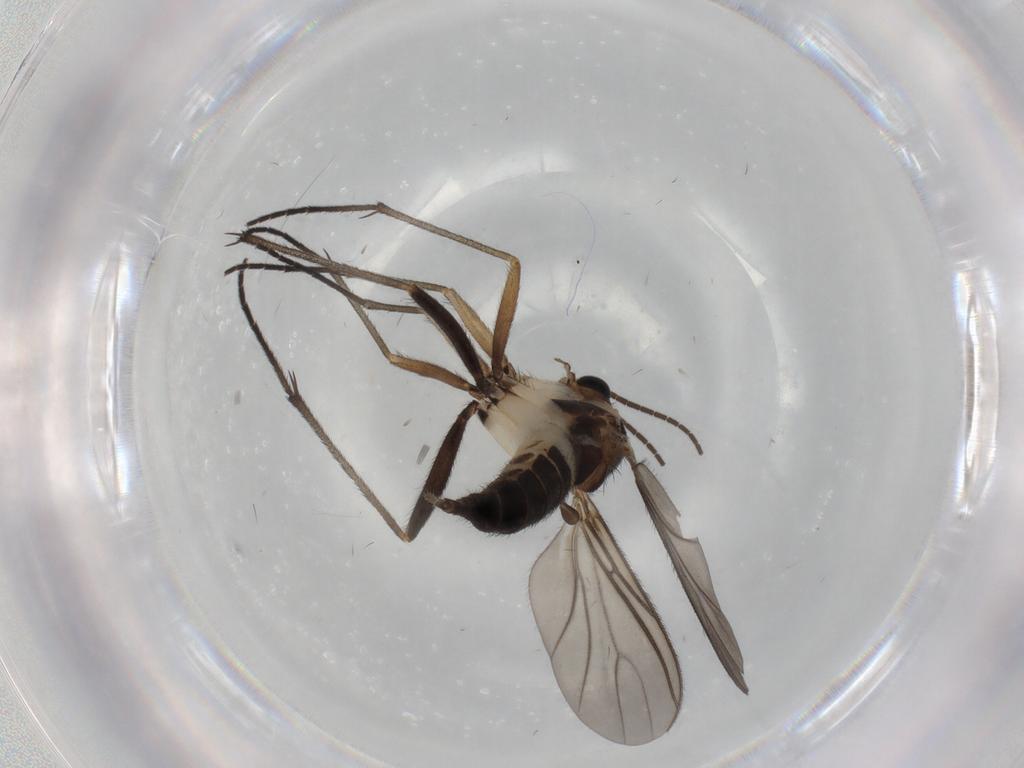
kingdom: Animalia
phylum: Arthropoda
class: Insecta
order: Diptera
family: Sciaridae
